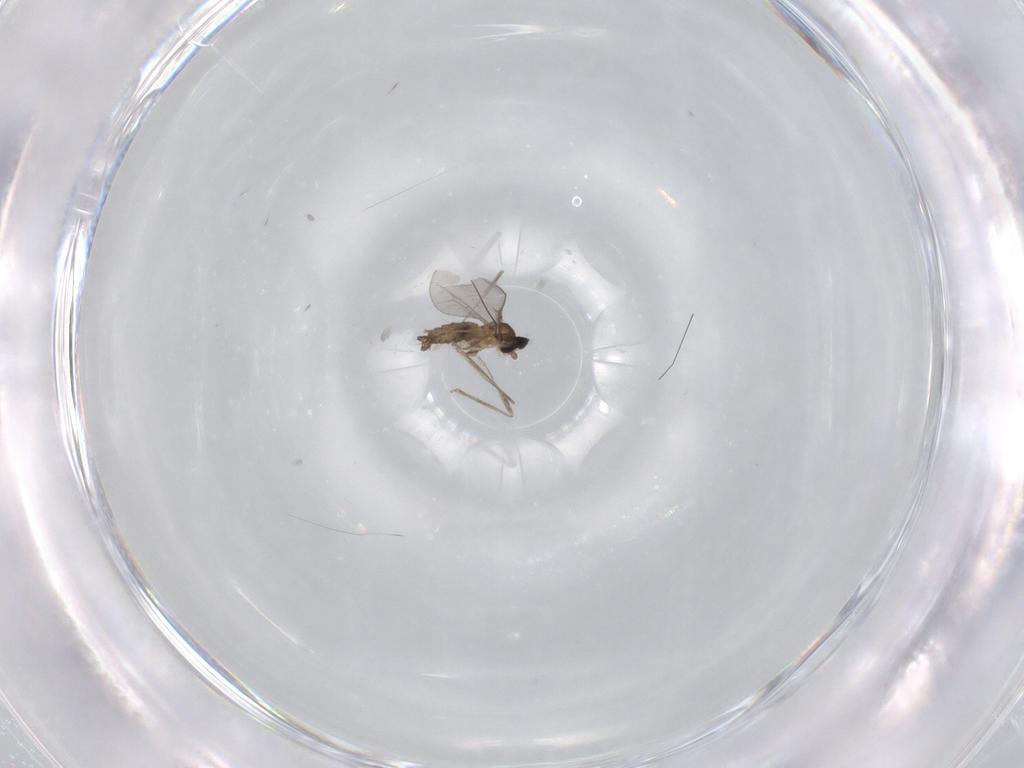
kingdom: Animalia
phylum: Arthropoda
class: Insecta
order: Diptera
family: Cecidomyiidae
